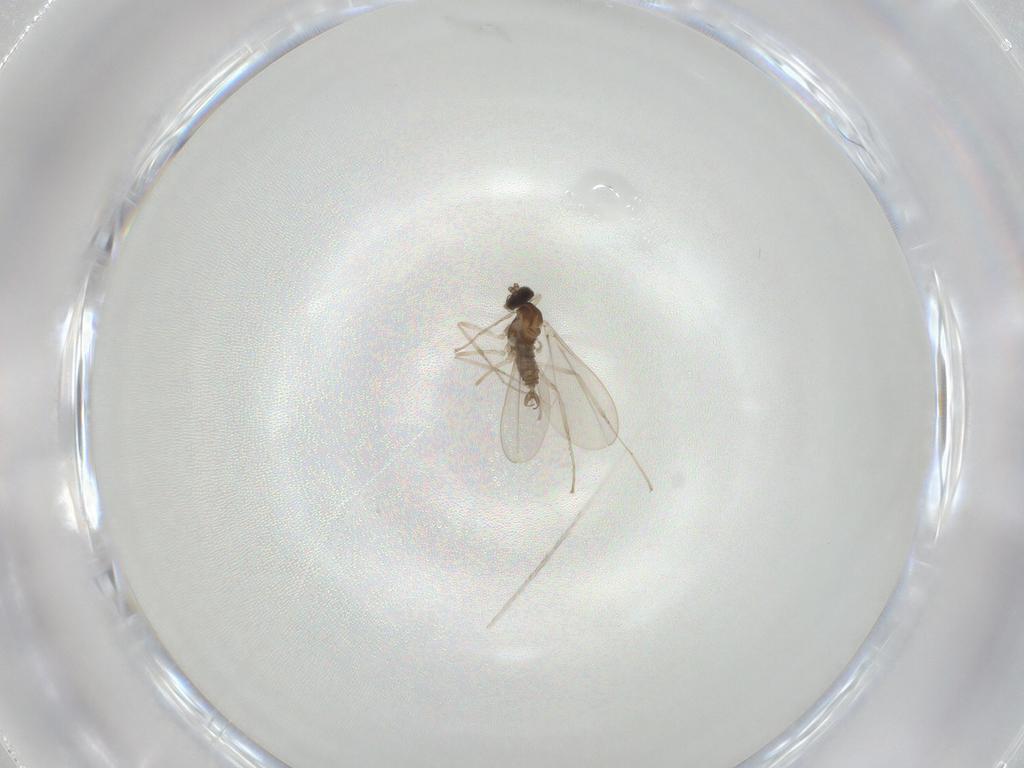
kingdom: Animalia
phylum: Arthropoda
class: Insecta
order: Diptera
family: Cecidomyiidae
